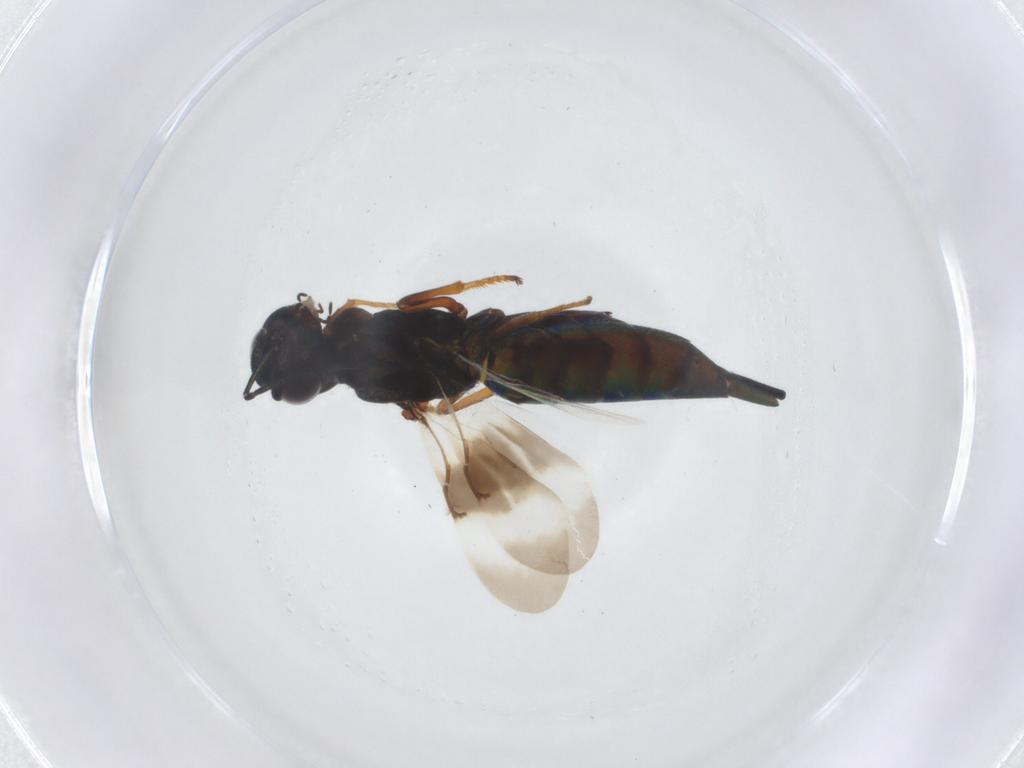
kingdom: Animalia
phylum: Arthropoda
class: Insecta
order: Hymenoptera
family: Eulophidae
